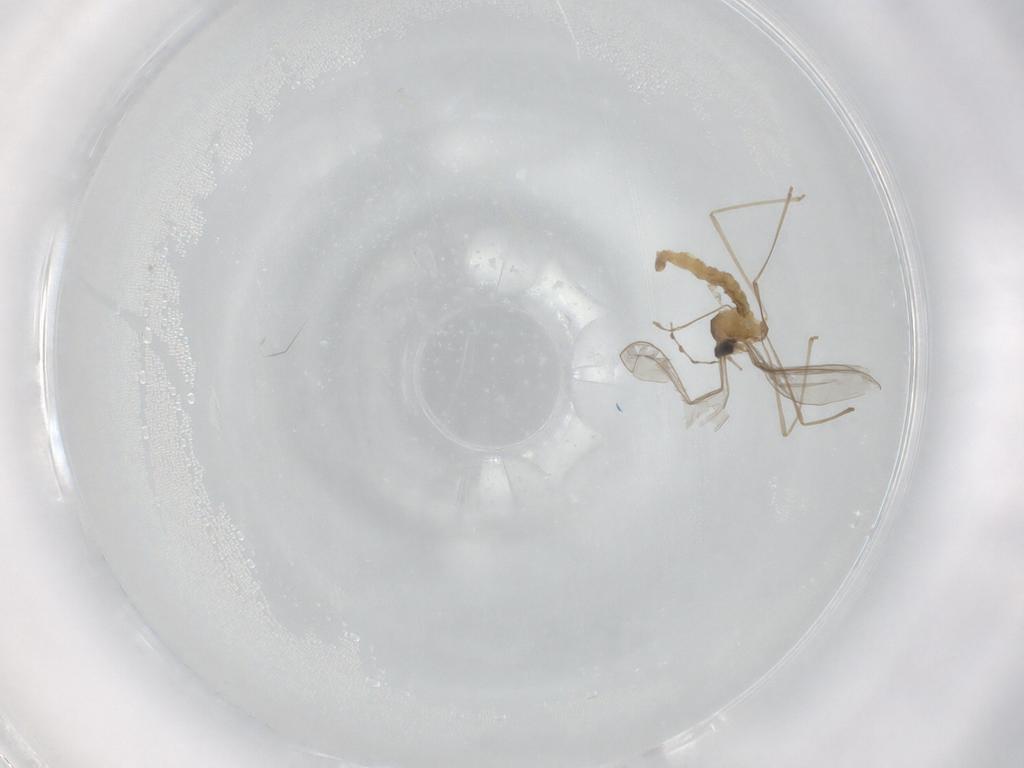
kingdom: Animalia
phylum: Arthropoda
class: Insecta
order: Diptera
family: Cecidomyiidae
